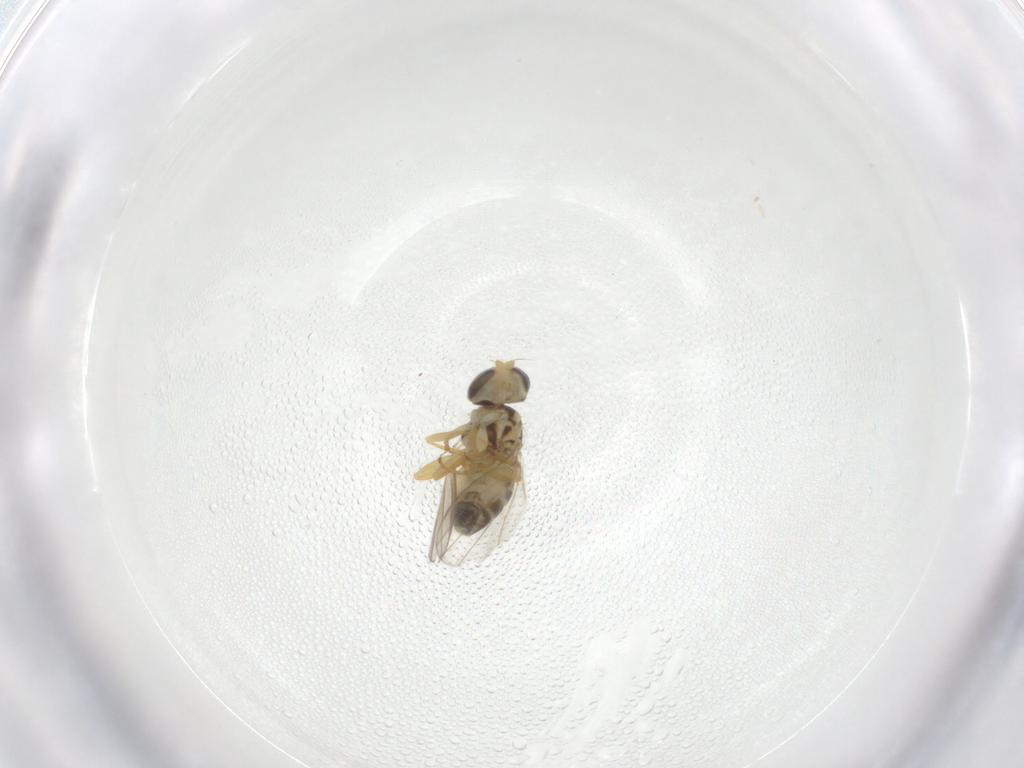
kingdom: Animalia
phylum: Arthropoda
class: Insecta
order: Diptera
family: Chyromyidae
